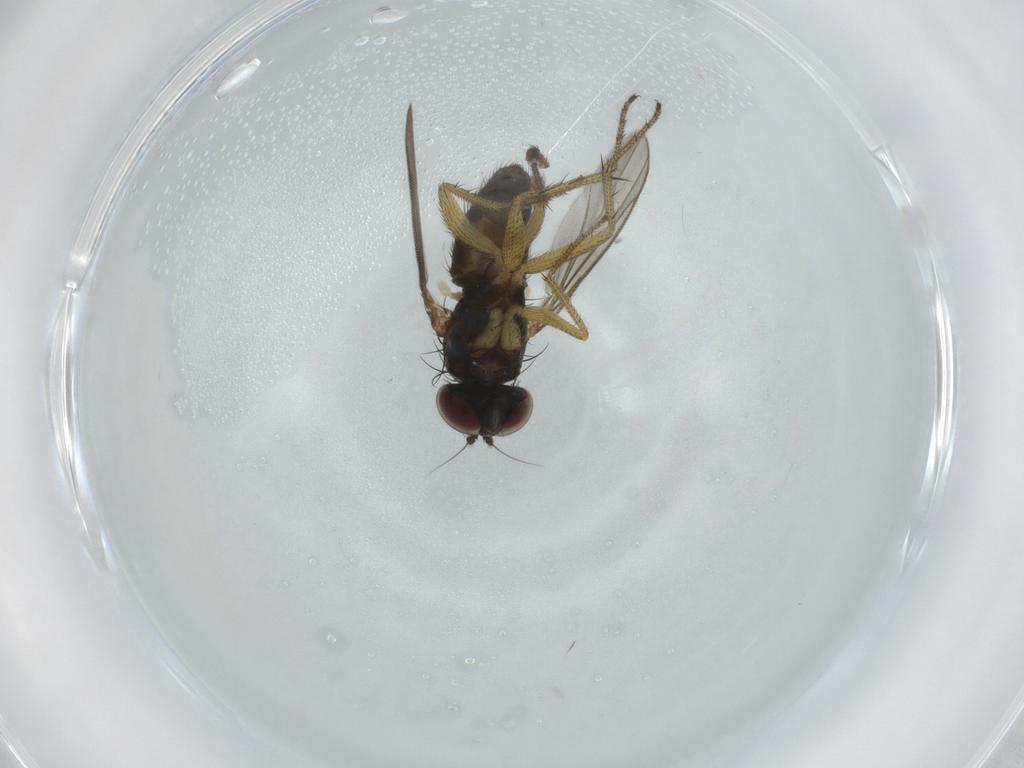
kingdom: Animalia
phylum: Arthropoda
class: Insecta
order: Diptera
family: Dolichopodidae
